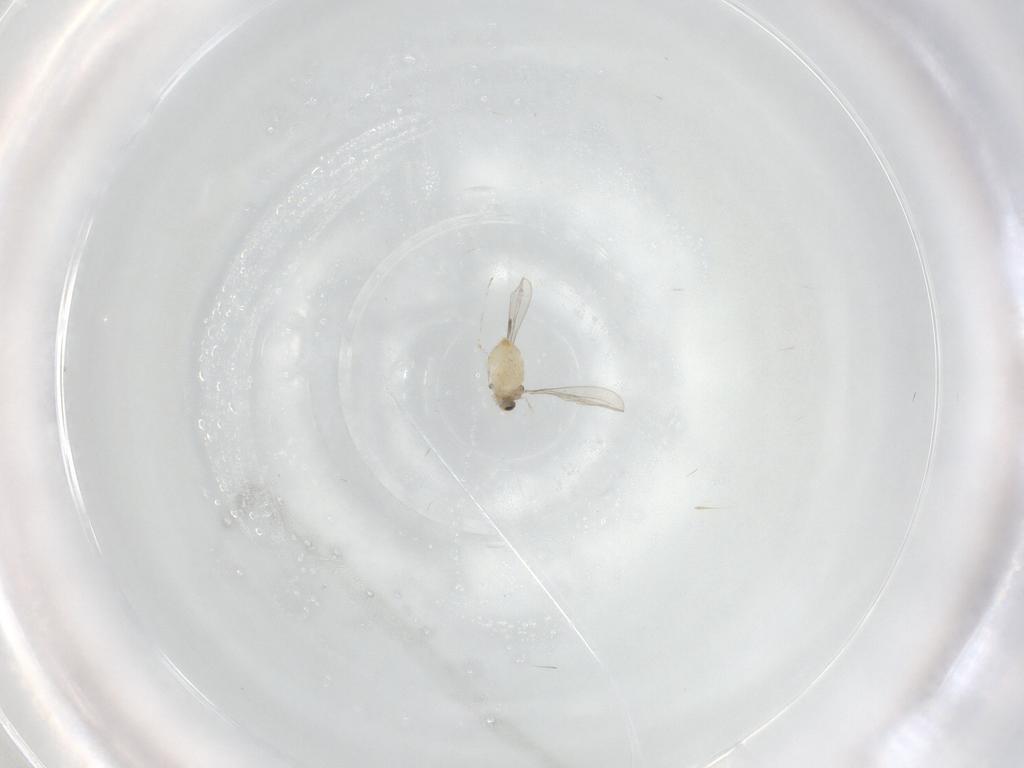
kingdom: Animalia
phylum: Arthropoda
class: Insecta
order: Diptera
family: Cecidomyiidae
